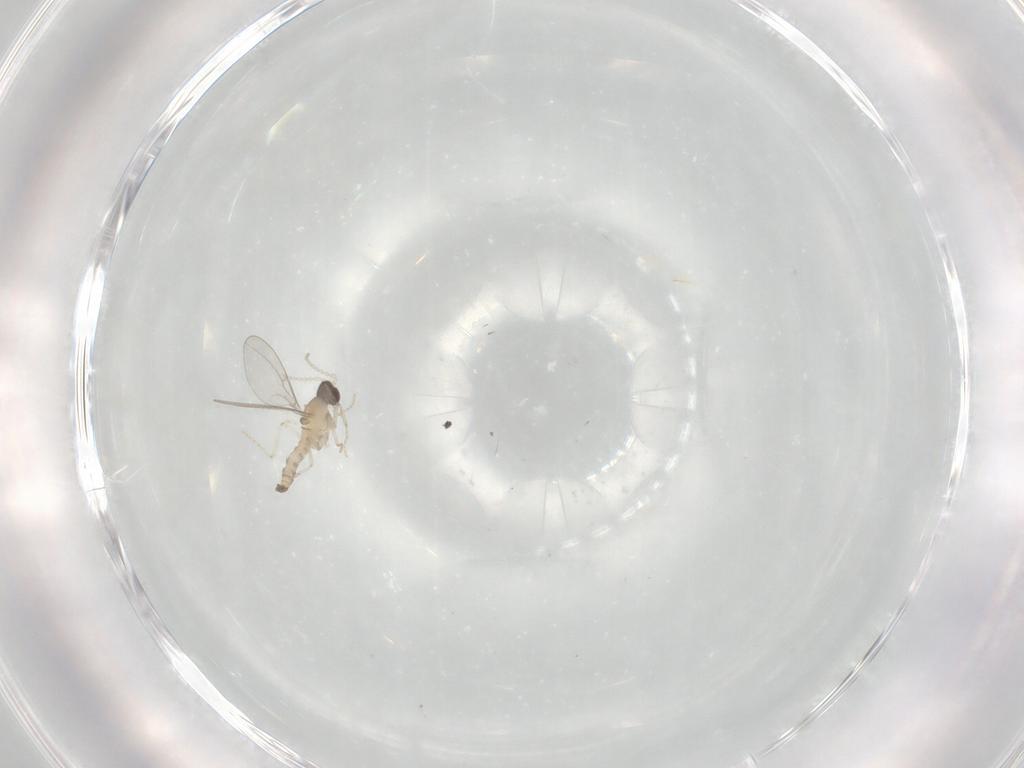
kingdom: Animalia
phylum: Arthropoda
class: Insecta
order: Diptera
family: Cecidomyiidae
